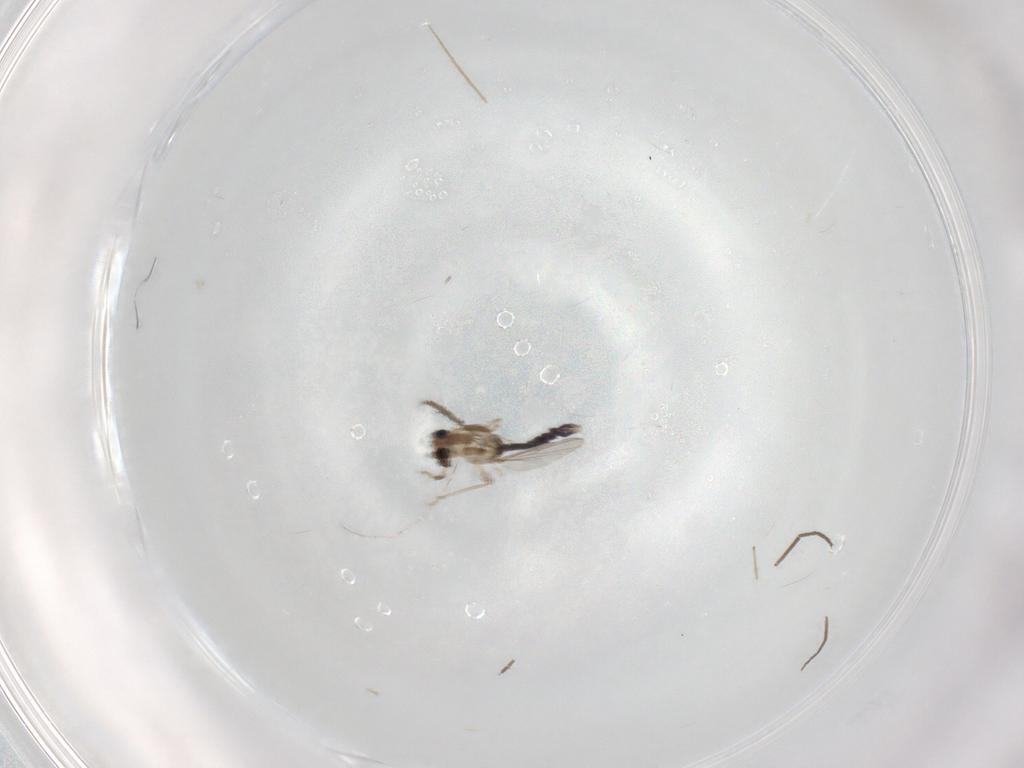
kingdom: Animalia
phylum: Arthropoda
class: Insecta
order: Diptera
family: Chironomidae
